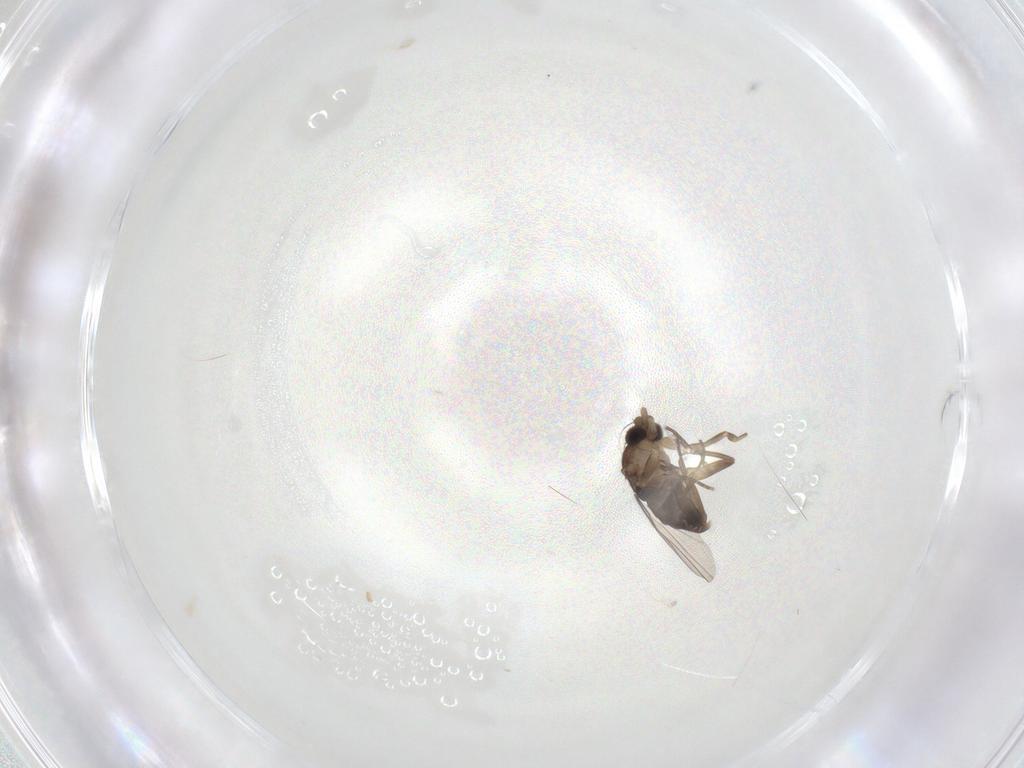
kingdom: Animalia
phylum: Arthropoda
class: Insecta
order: Diptera
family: Phoridae
